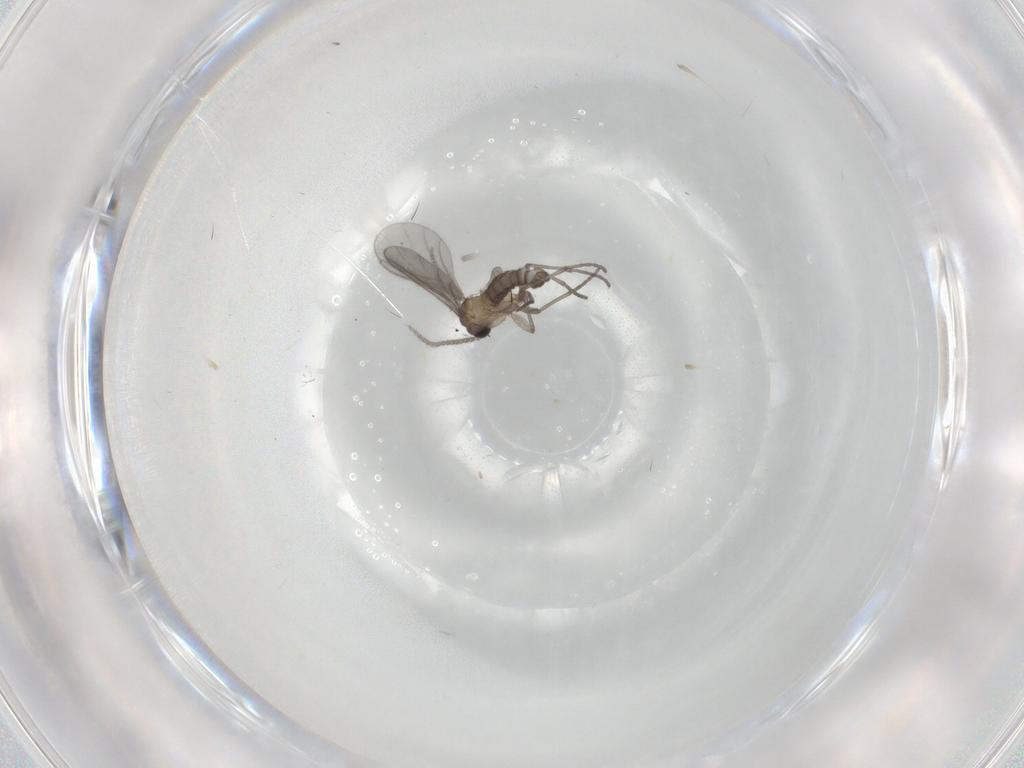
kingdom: Animalia
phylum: Arthropoda
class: Insecta
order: Diptera
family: Sciaridae
